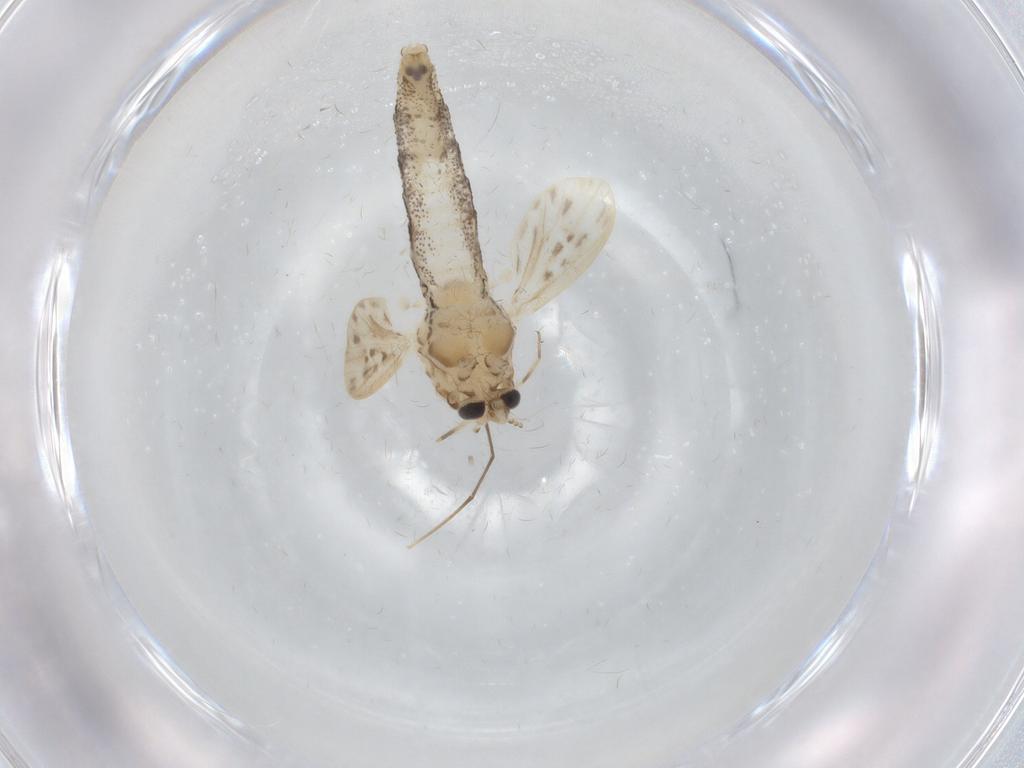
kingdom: Animalia
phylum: Arthropoda
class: Insecta
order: Diptera
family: Chaoboridae
